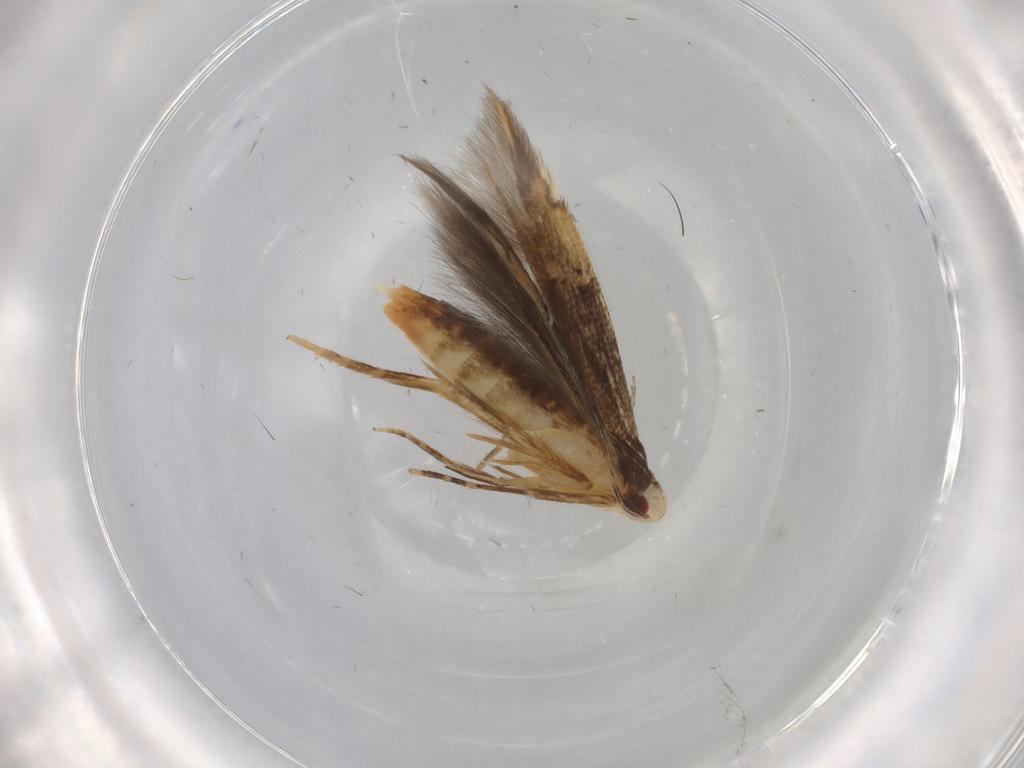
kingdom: Animalia
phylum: Arthropoda
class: Insecta
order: Lepidoptera
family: Gelechiidae
